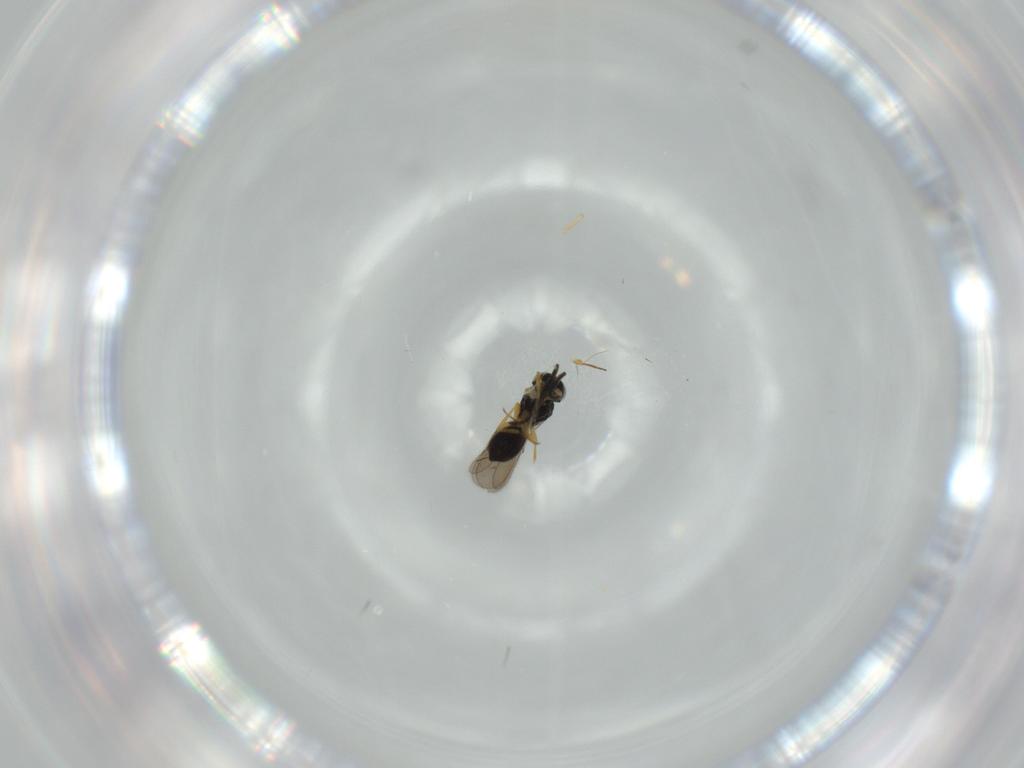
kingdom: Animalia
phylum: Arthropoda
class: Insecta
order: Hymenoptera
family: Scelionidae
